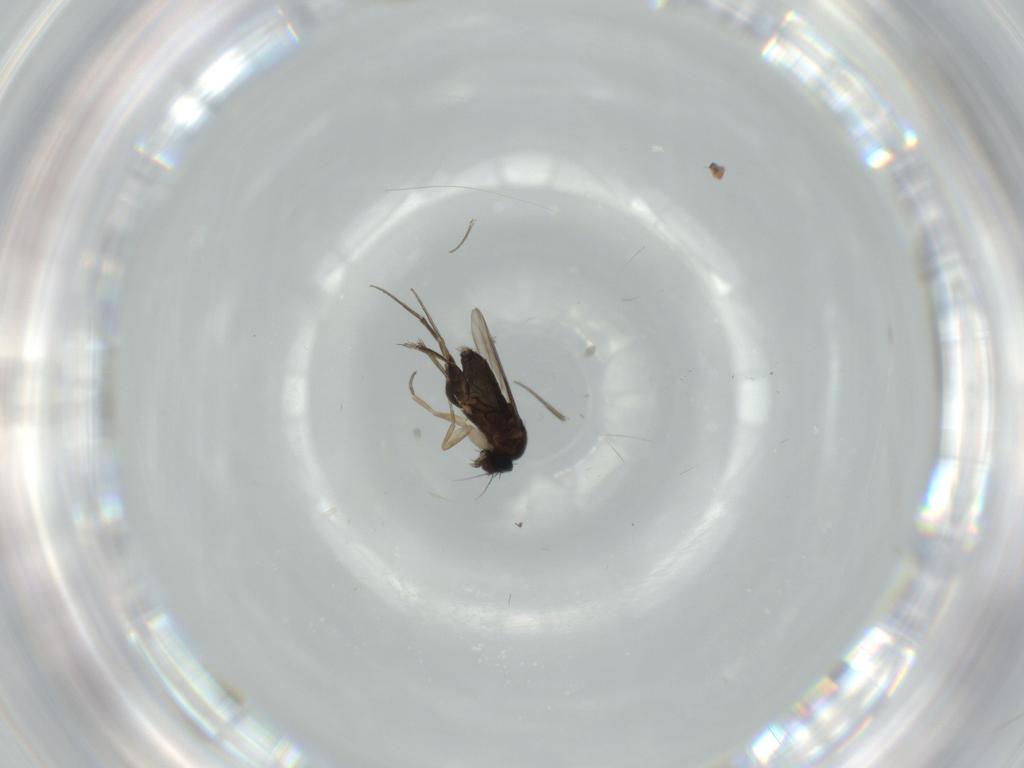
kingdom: Animalia
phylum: Arthropoda
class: Insecta
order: Diptera
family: Phoridae
